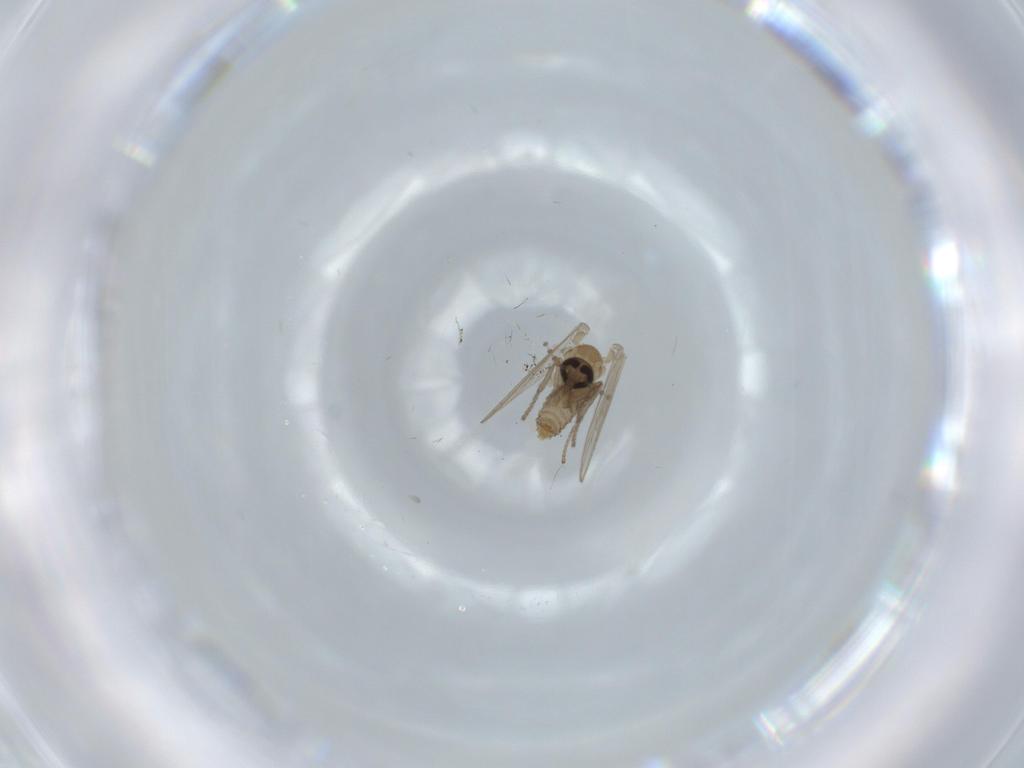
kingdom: Animalia
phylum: Arthropoda
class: Insecta
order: Diptera
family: Psychodidae
